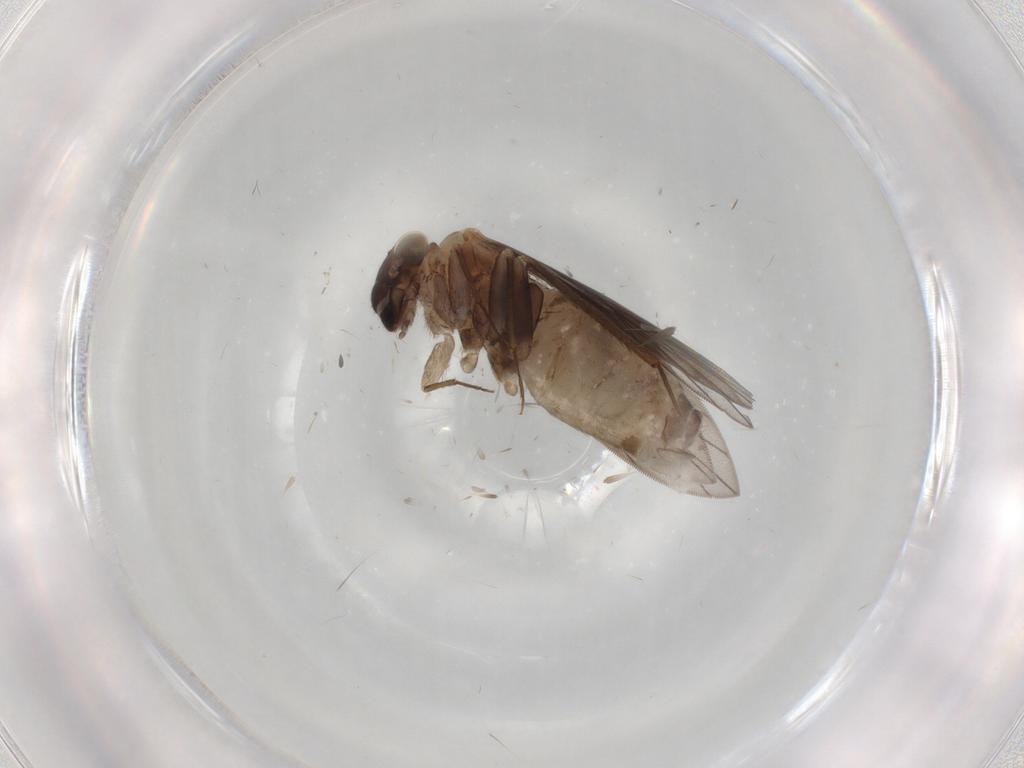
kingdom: Animalia
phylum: Arthropoda
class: Insecta
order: Psocodea
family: Lepidopsocidae
